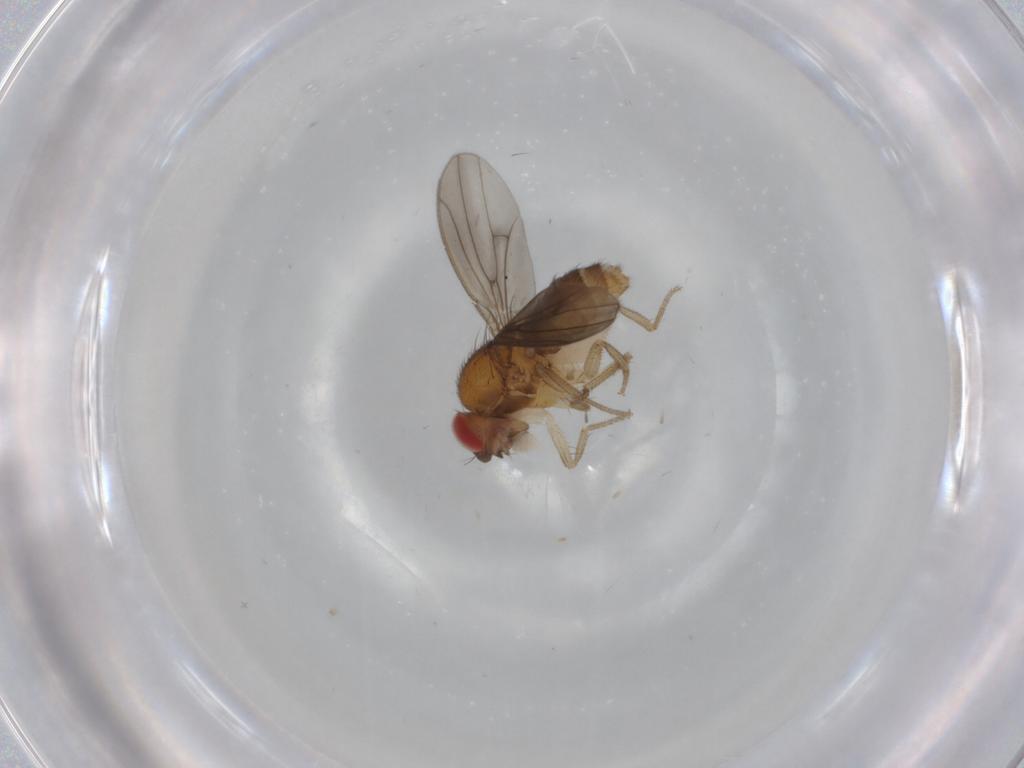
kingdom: Animalia
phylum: Arthropoda
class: Insecta
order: Diptera
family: Drosophilidae
